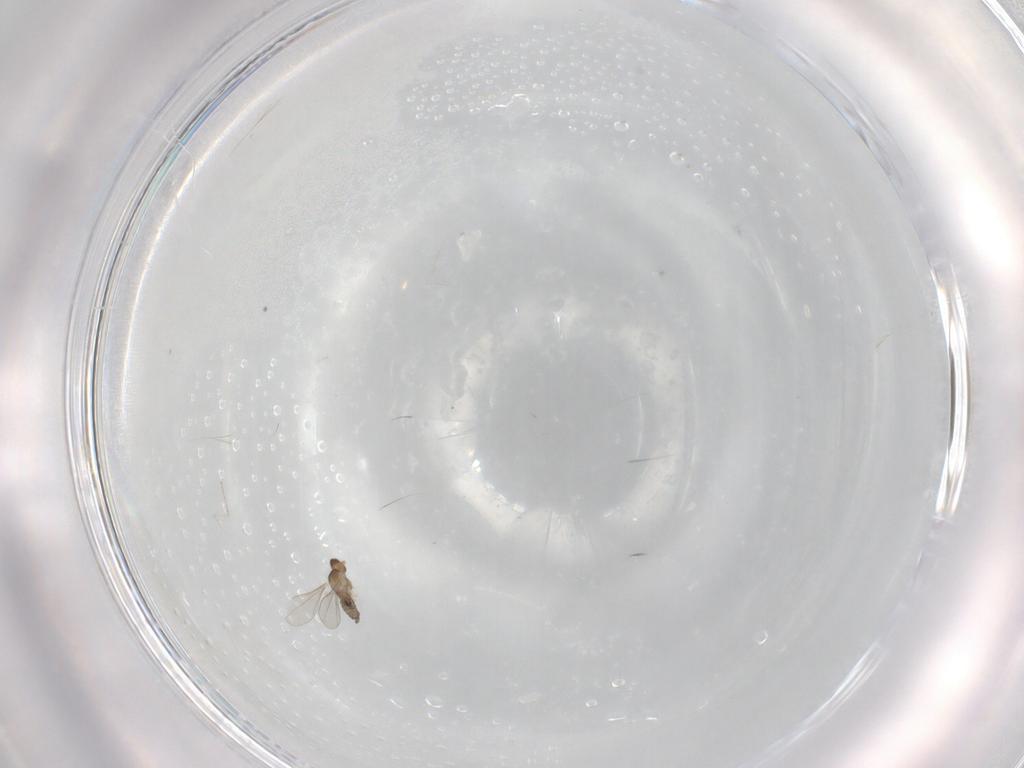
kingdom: Animalia
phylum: Arthropoda
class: Insecta
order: Diptera
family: Cecidomyiidae
